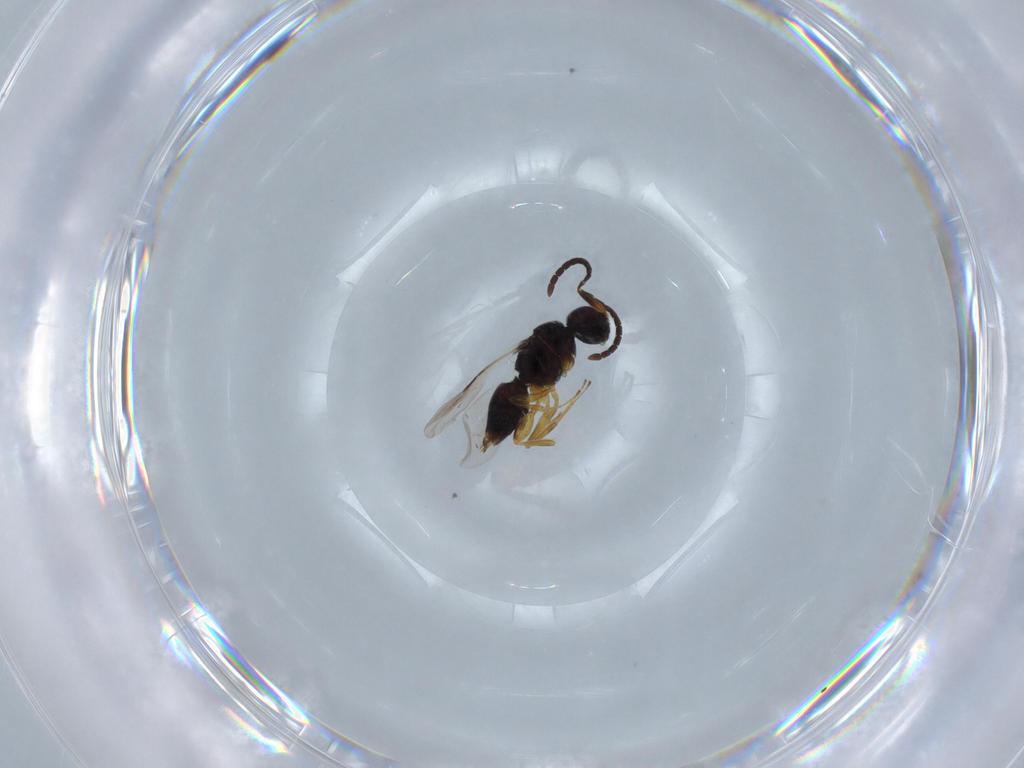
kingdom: Animalia
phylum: Arthropoda
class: Insecta
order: Hymenoptera
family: Megaspilidae
